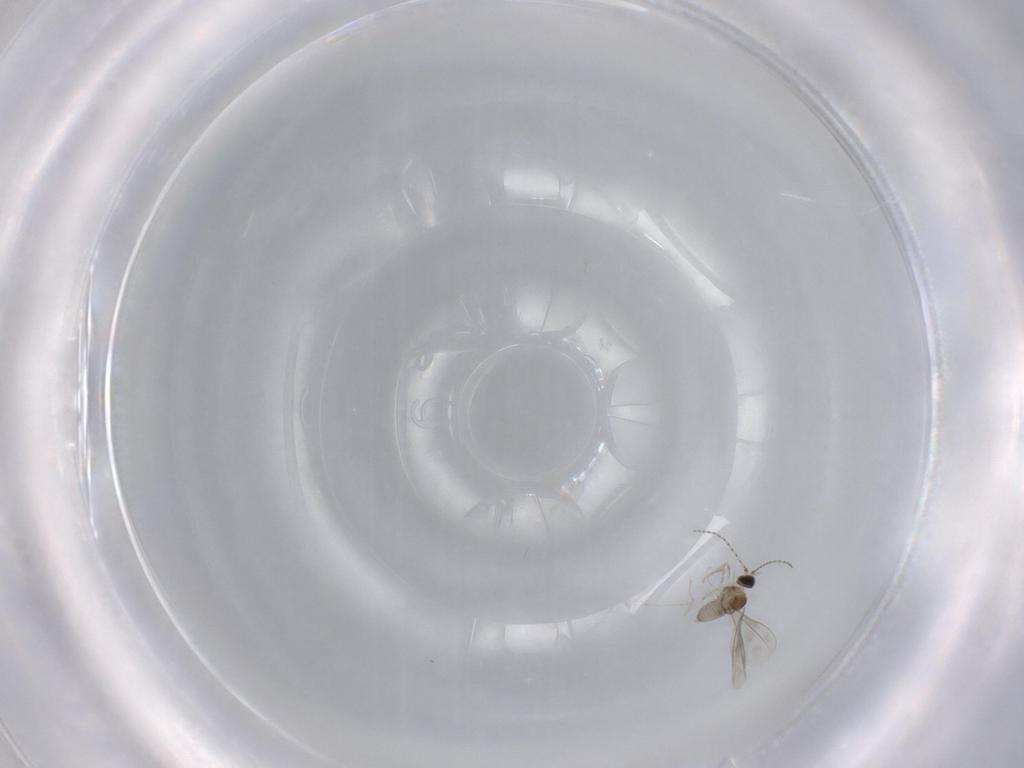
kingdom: Animalia
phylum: Arthropoda
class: Insecta
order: Diptera
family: Cecidomyiidae
